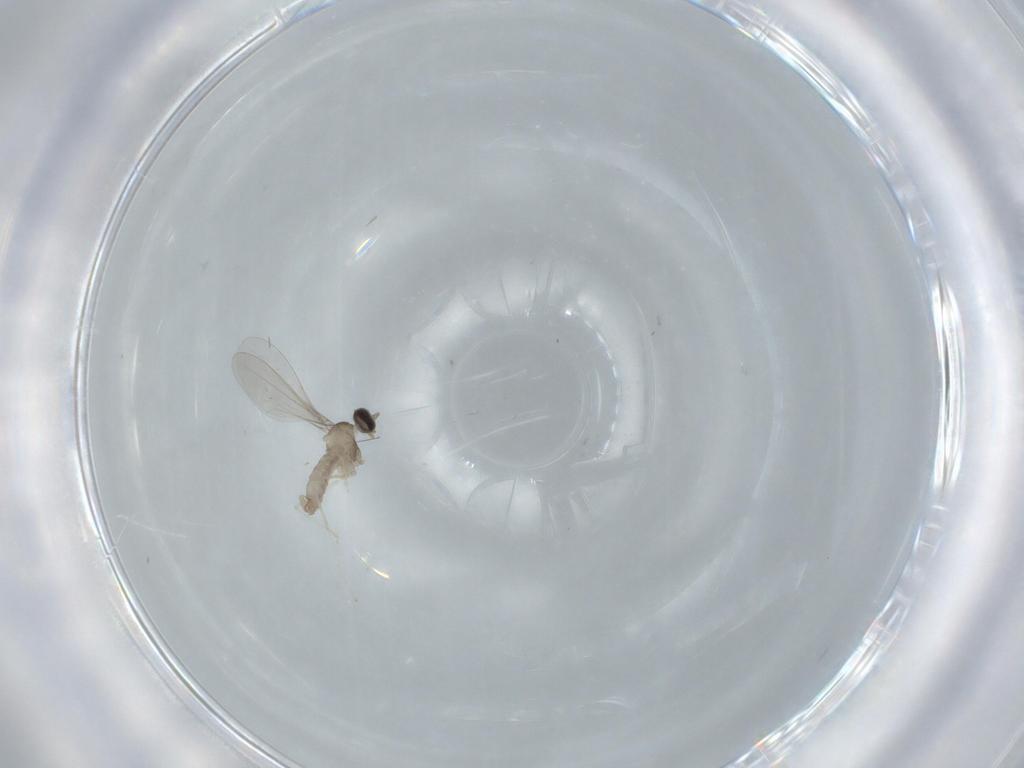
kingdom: Animalia
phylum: Arthropoda
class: Insecta
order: Diptera
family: Cecidomyiidae
